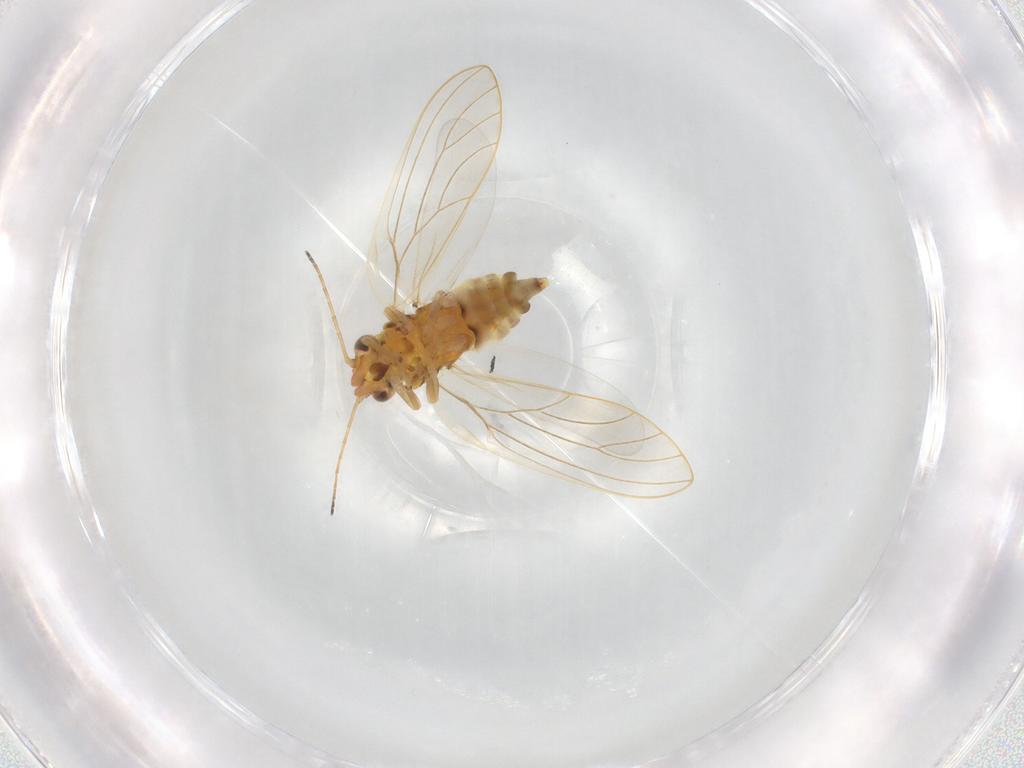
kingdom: Animalia
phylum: Arthropoda
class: Insecta
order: Hemiptera
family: Aphalaridae
